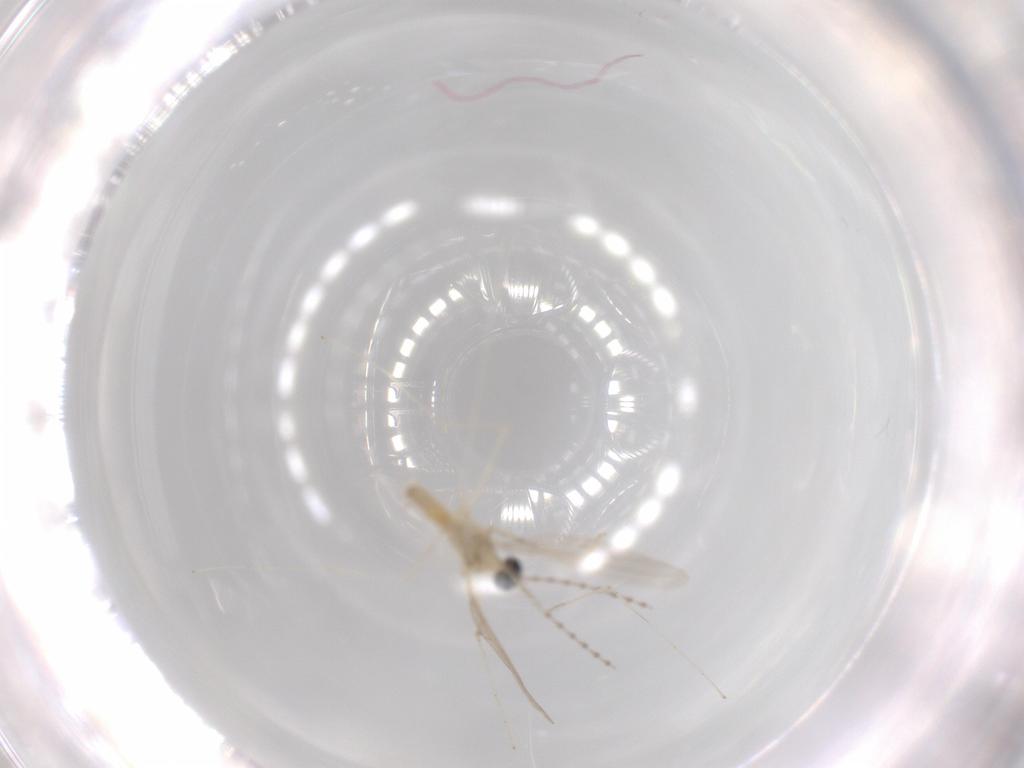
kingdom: Animalia
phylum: Arthropoda
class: Insecta
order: Diptera
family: Cecidomyiidae
